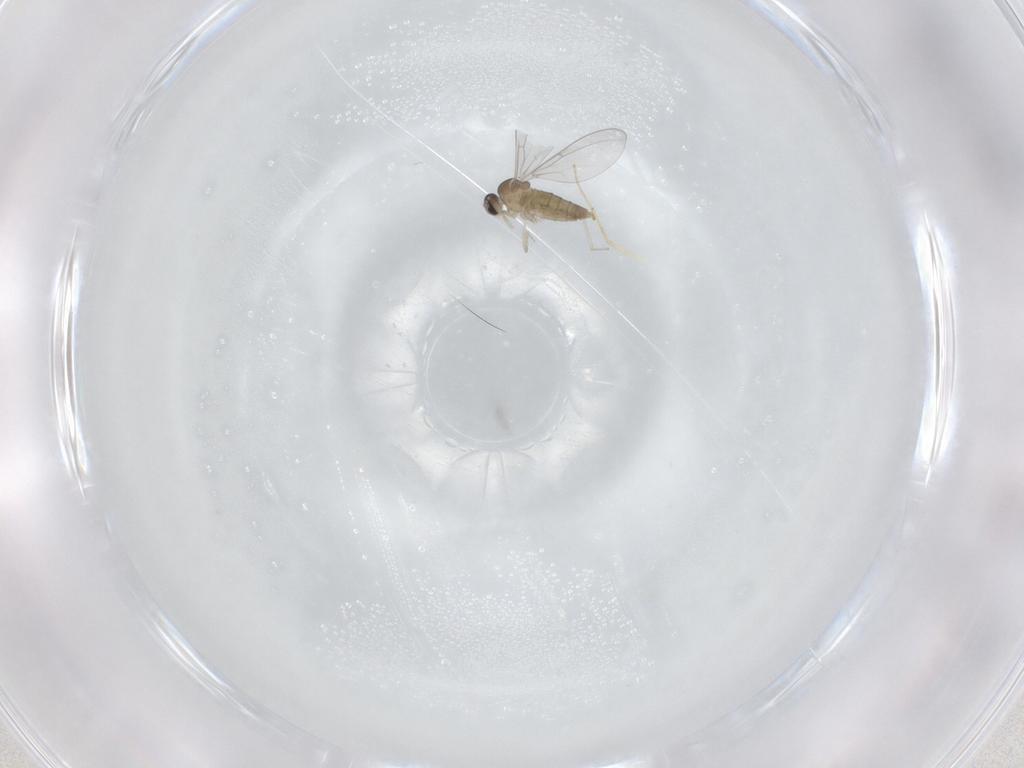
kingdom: Animalia
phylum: Arthropoda
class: Insecta
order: Diptera
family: Cecidomyiidae
